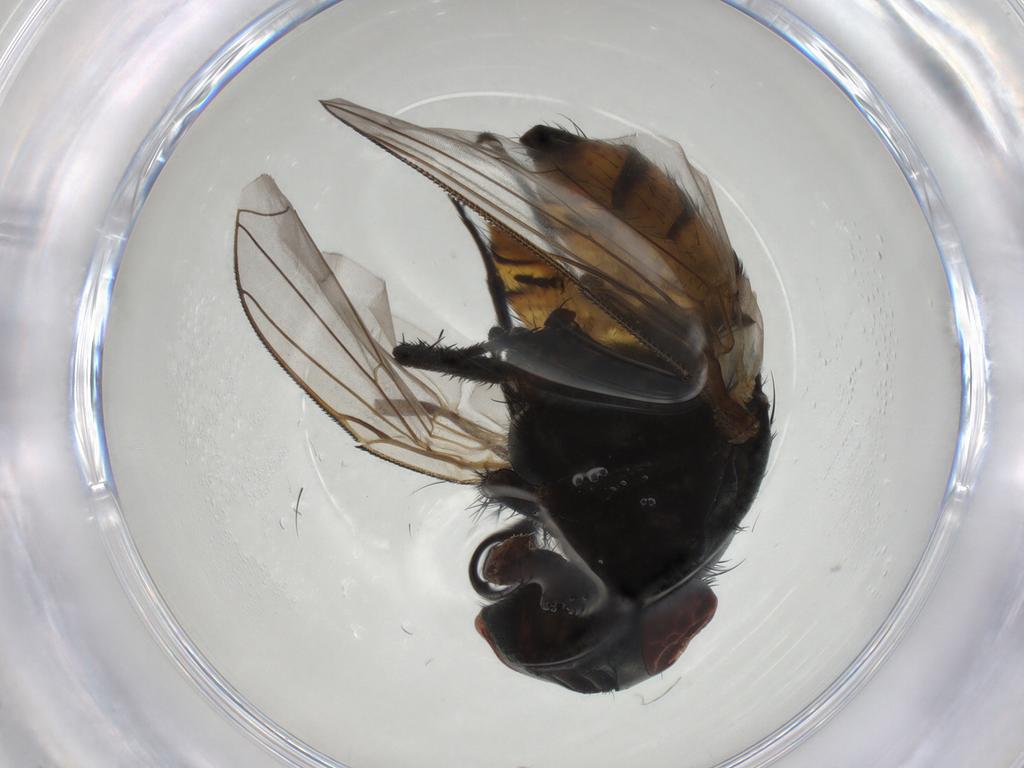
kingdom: Animalia
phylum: Arthropoda
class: Insecta
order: Diptera
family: Muscidae
